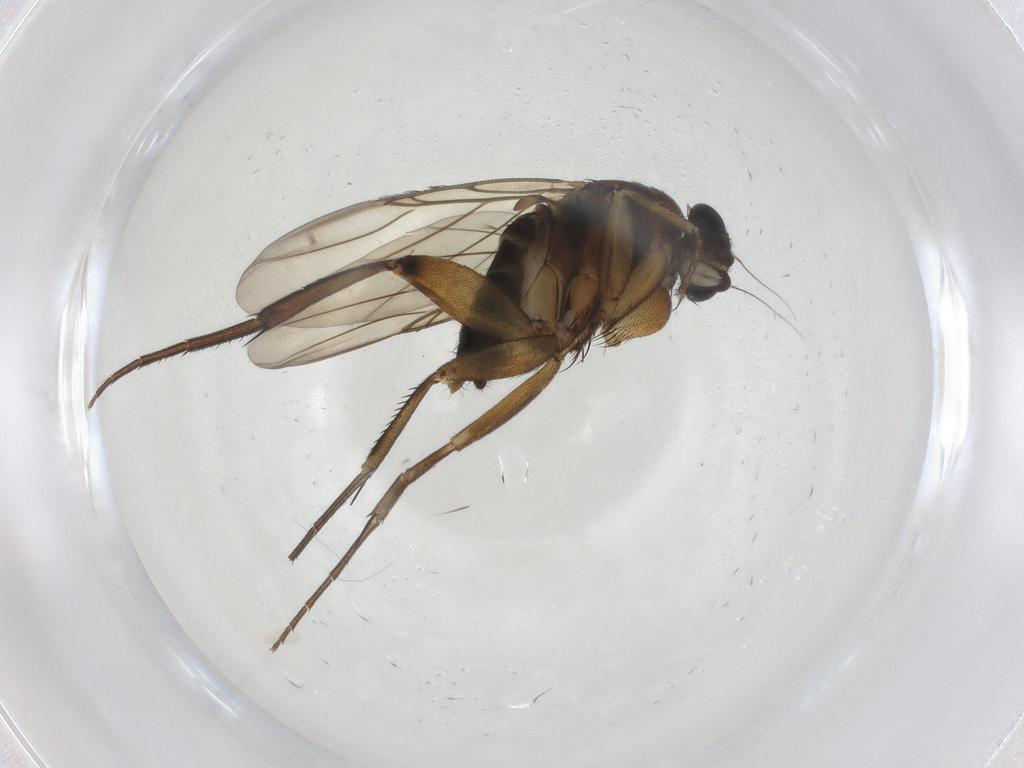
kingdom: Animalia
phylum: Arthropoda
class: Insecta
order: Diptera
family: Phoridae
